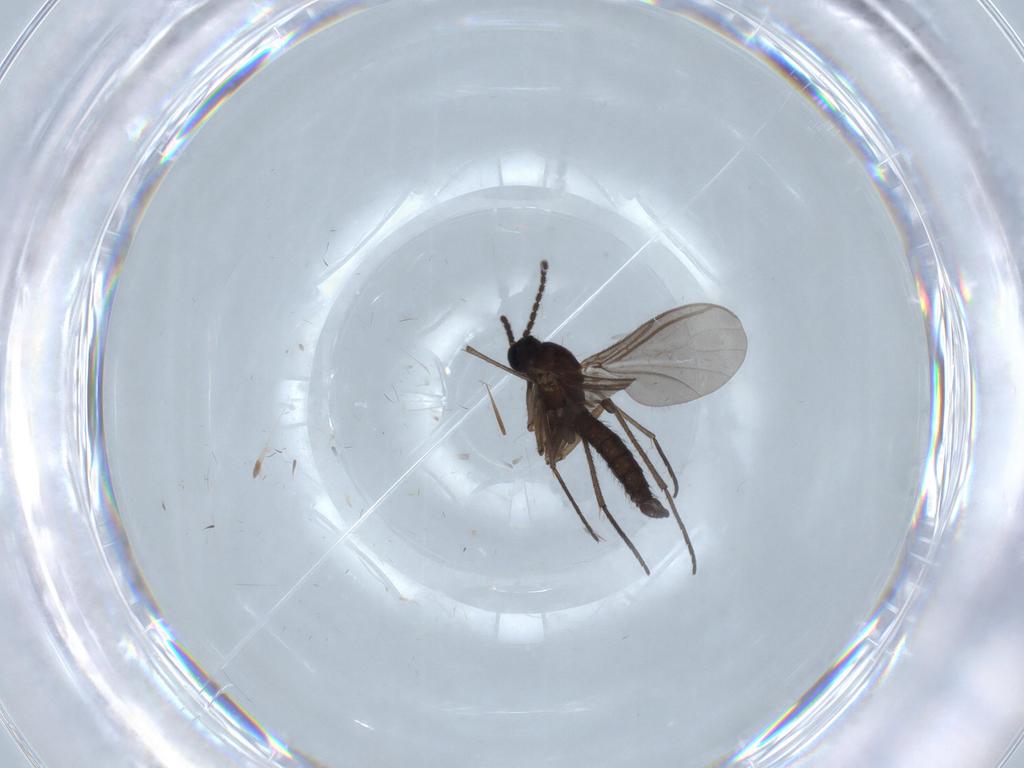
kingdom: Animalia
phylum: Arthropoda
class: Insecta
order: Diptera
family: Sciaridae
